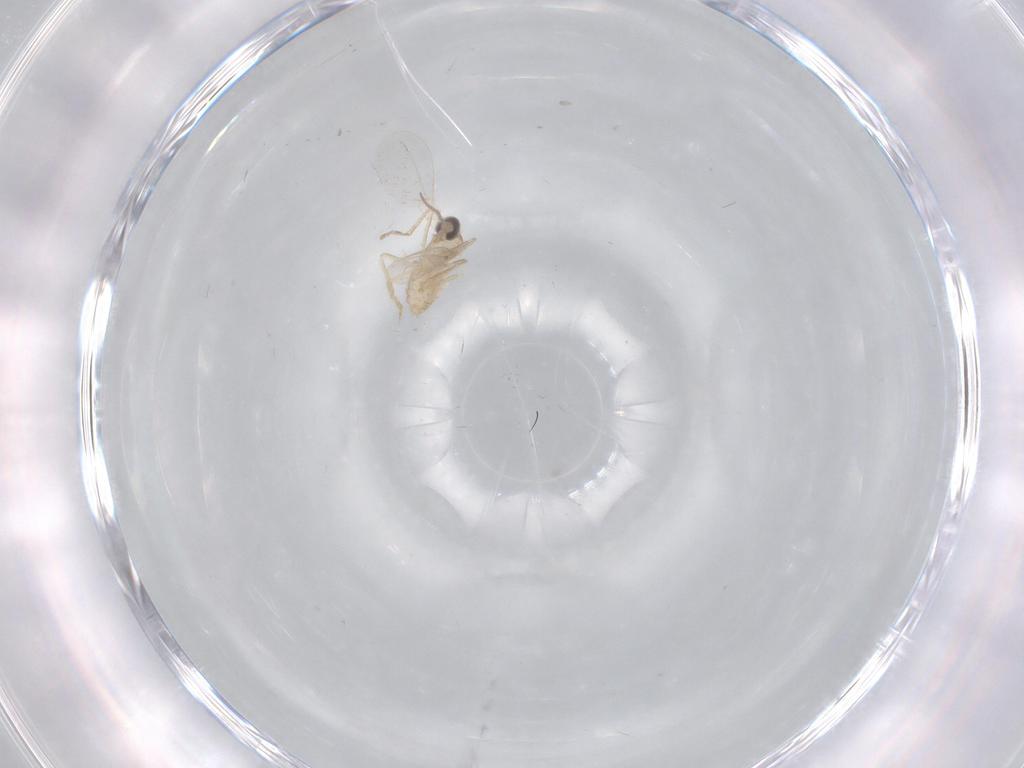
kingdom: Animalia
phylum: Arthropoda
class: Insecta
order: Diptera
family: Cecidomyiidae
